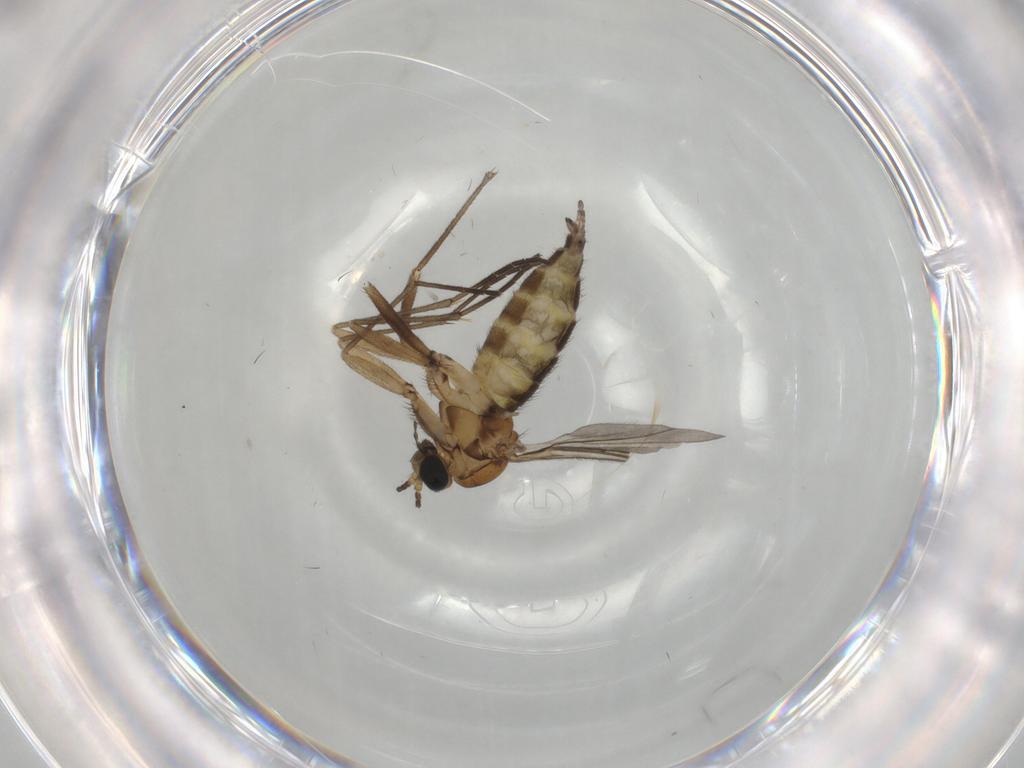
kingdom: Animalia
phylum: Arthropoda
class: Insecta
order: Diptera
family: Sciaridae
